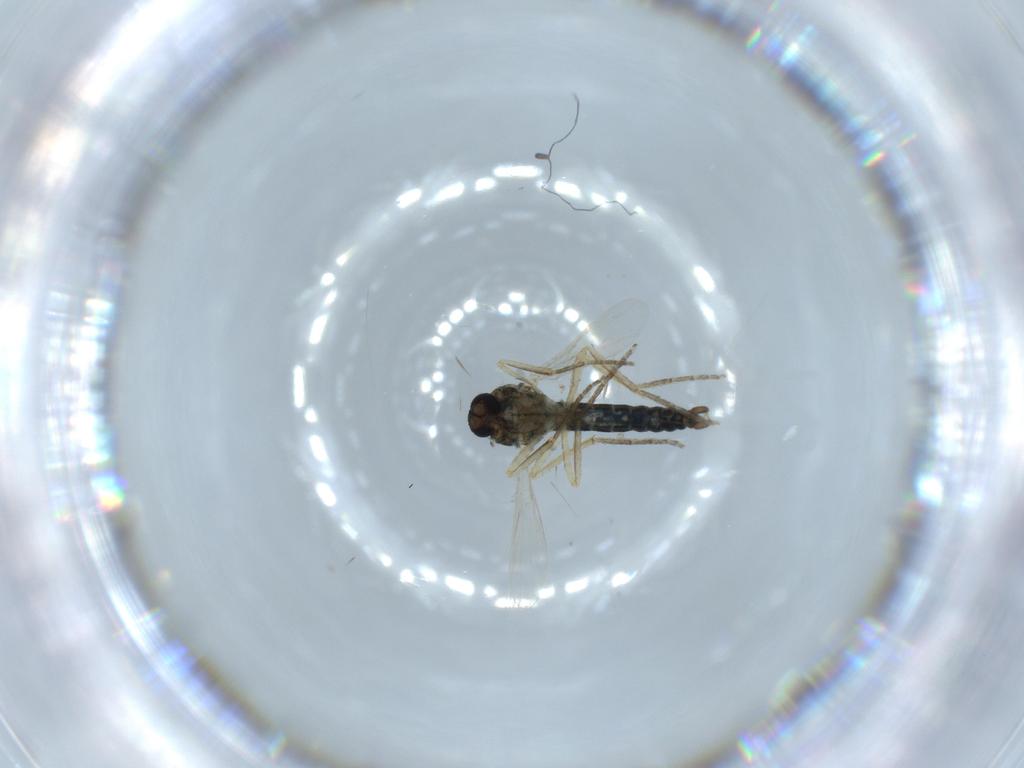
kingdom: Animalia
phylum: Arthropoda
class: Insecta
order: Diptera
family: Ceratopogonidae
